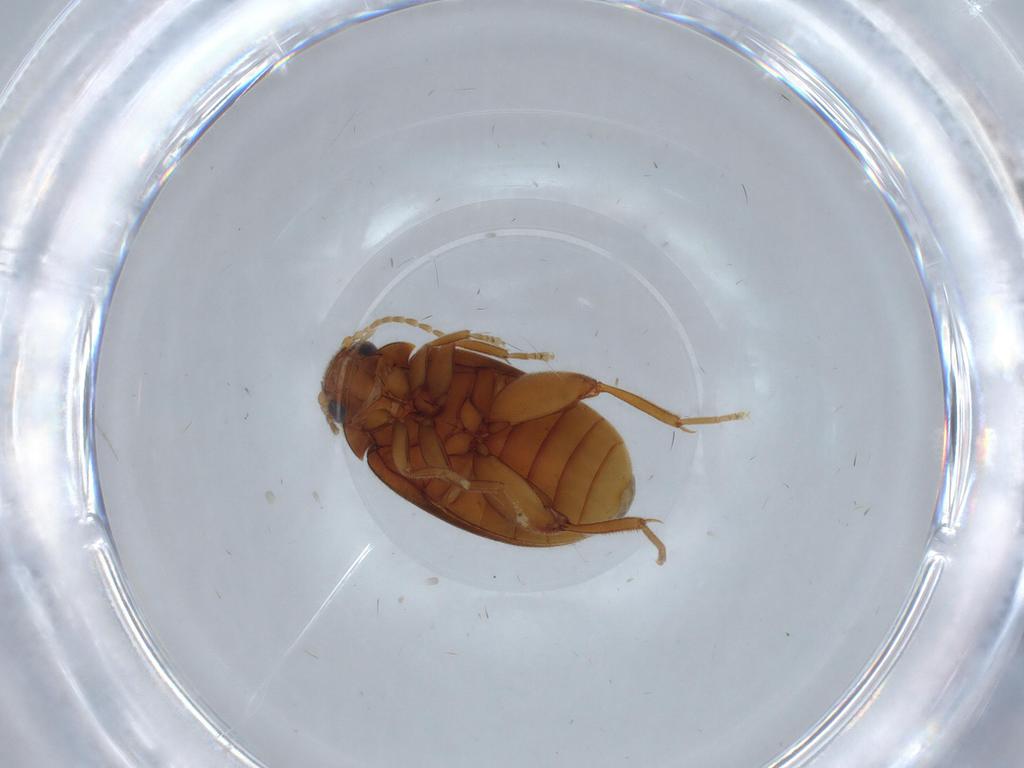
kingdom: Animalia
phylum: Arthropoda
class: Insecta
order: Coleoptera
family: Scirtidae
